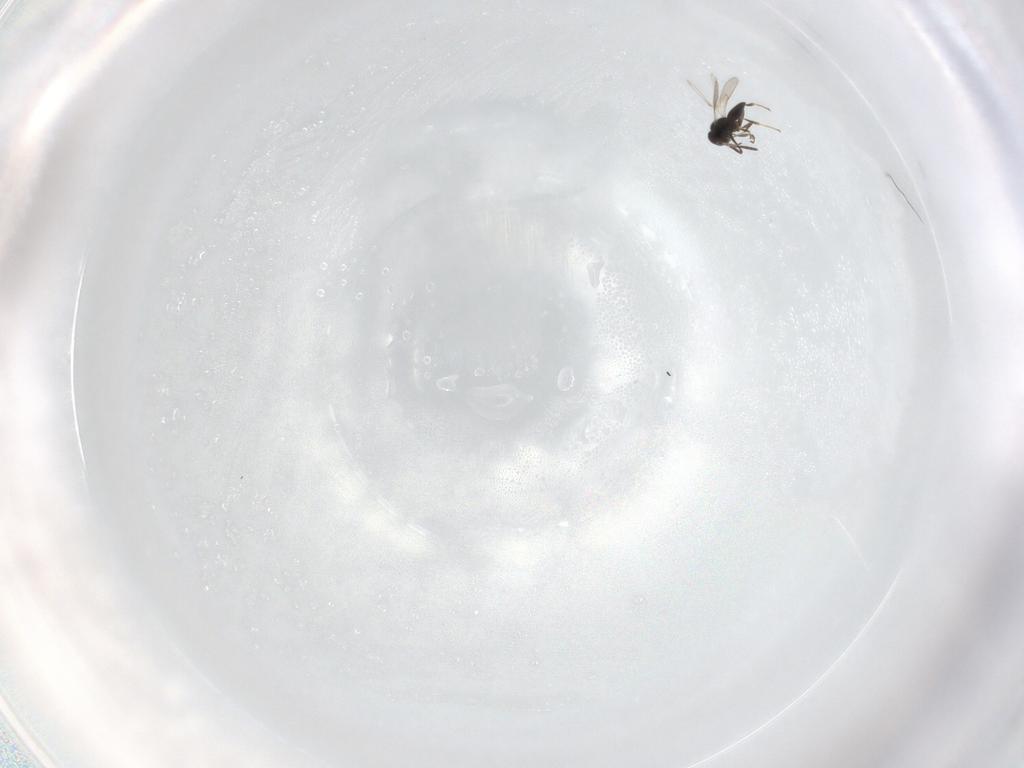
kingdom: Animalia
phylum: Arthropoda
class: Insecta
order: Hymenoptera
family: Scelionidae
